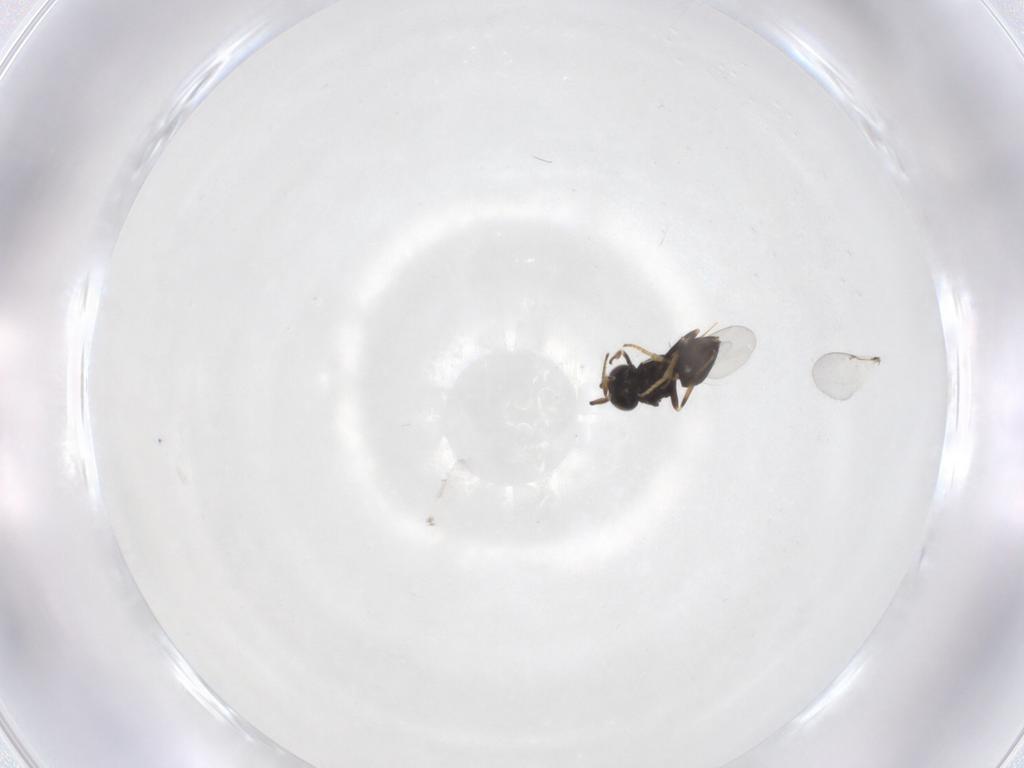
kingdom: Animalia
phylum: Arthropoda
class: Insecta
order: Hymenoptera
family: Encyrtidae
